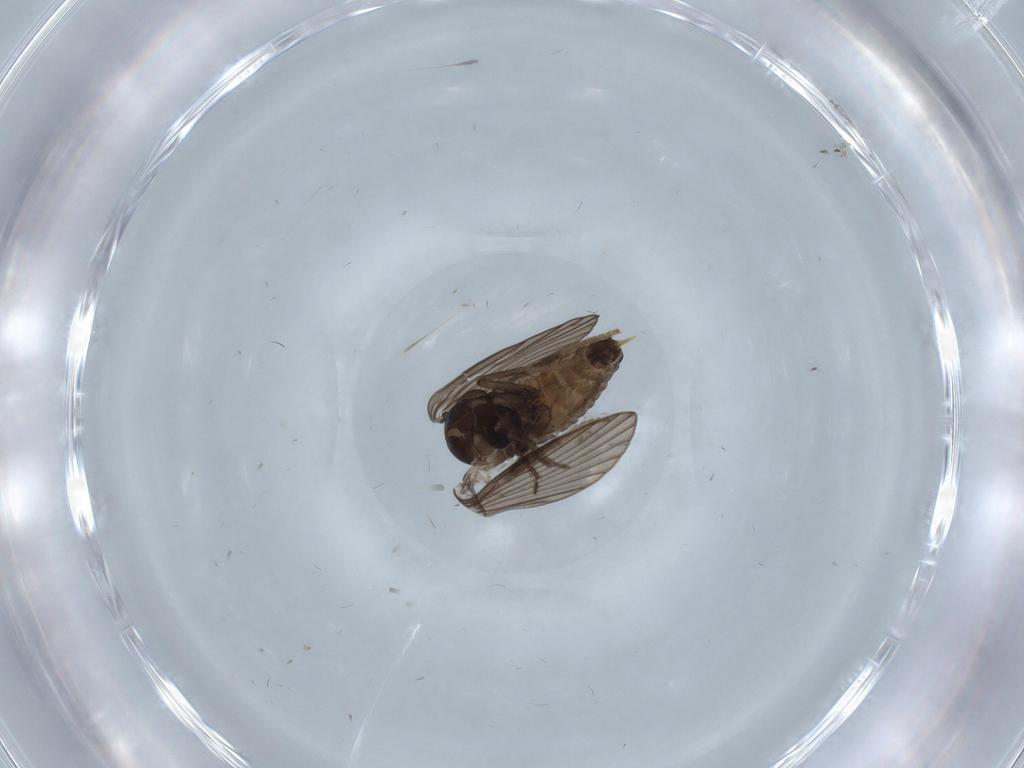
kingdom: Animalia
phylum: Arthropoda
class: Insecta
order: Diptera
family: Psychodidae
